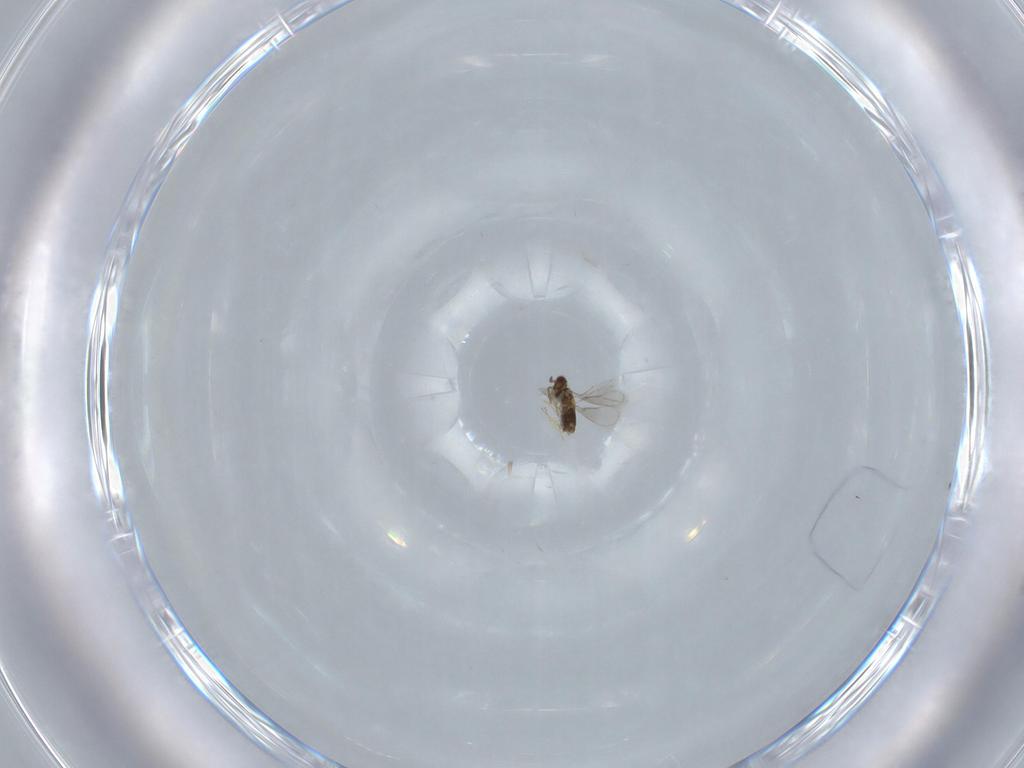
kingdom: Animalia
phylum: Arthropoda
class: Insecta
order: Hymenoptera
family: Aphelinidae
